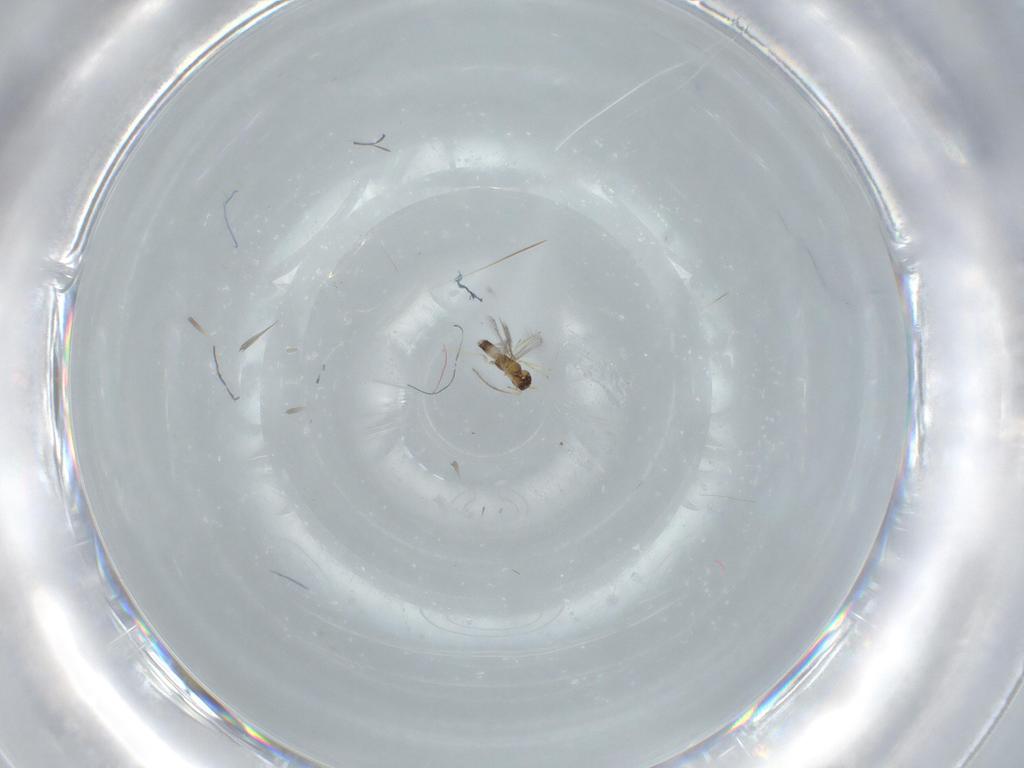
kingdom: Animalia
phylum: Arthropoda
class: Insecta
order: Hymenoptera
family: Mymaridae
